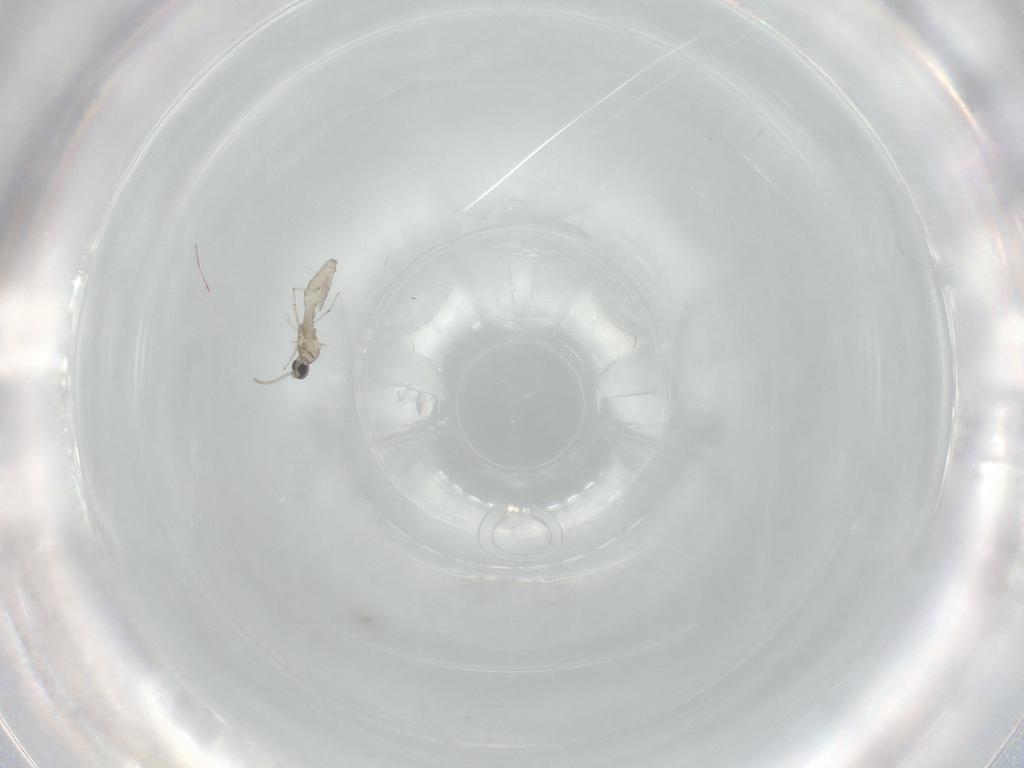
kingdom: Animalia
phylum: Arthropoda
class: Insecta
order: Diptera
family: Cecidomyiidae
